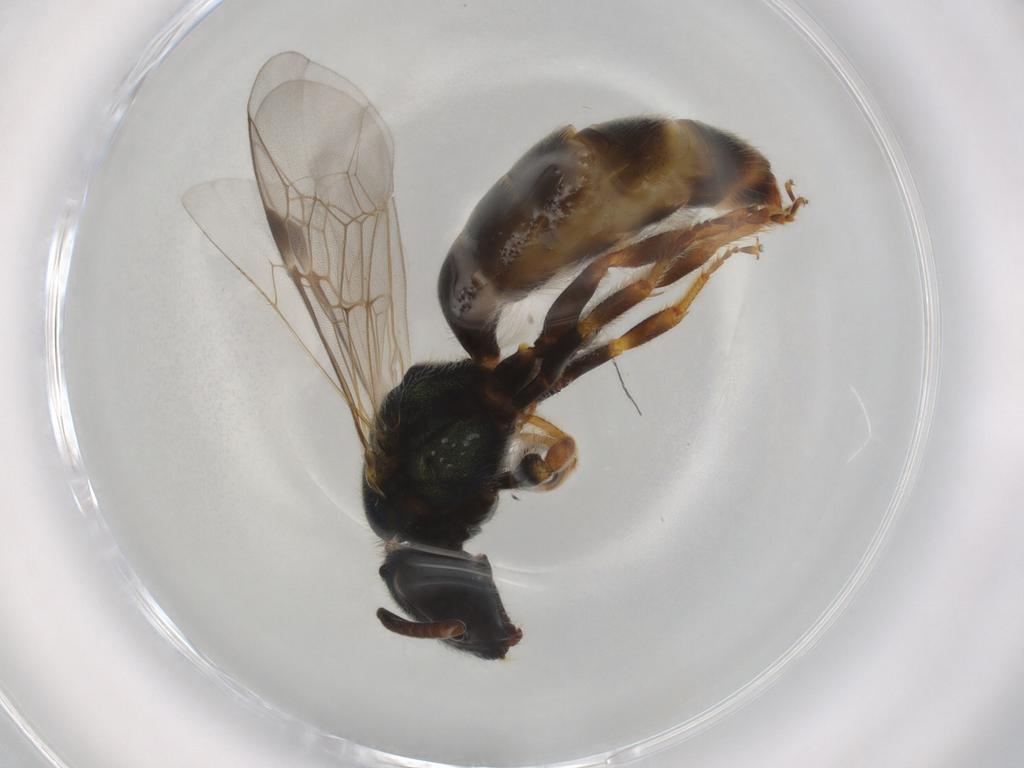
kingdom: Animalia
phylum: Arthropoda
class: Insecta
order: Hymenoptera
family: Halictidae
